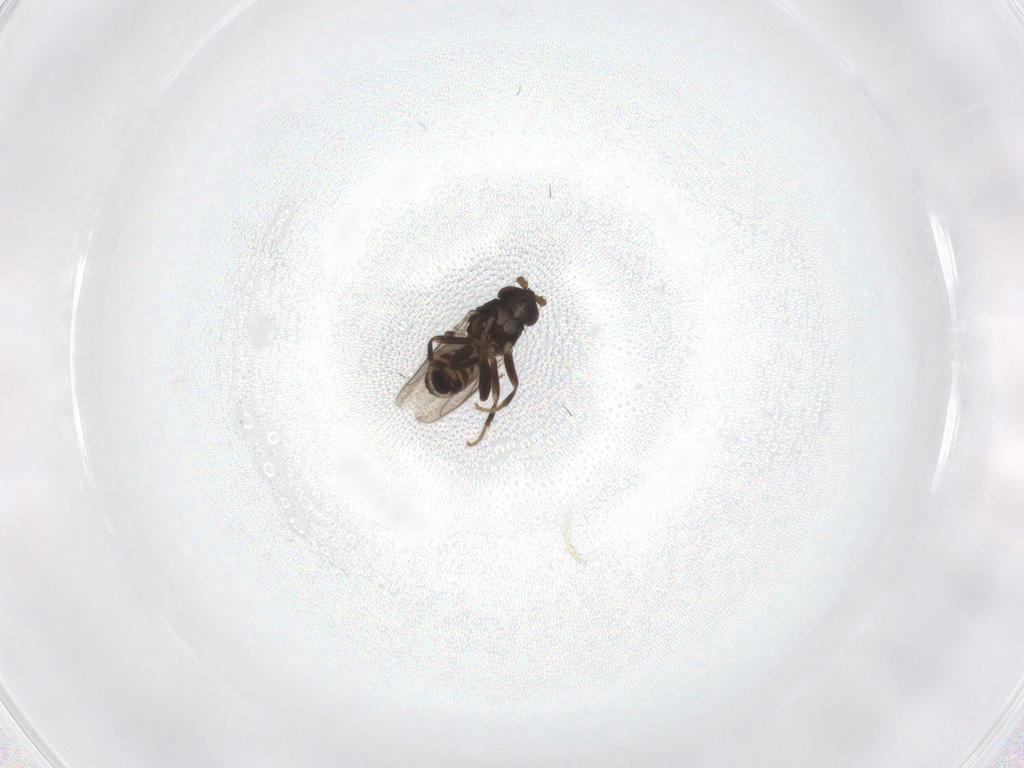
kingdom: Animalia
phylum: Arthropoda
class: Insecta
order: Diptera
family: Sphaeroceridae
